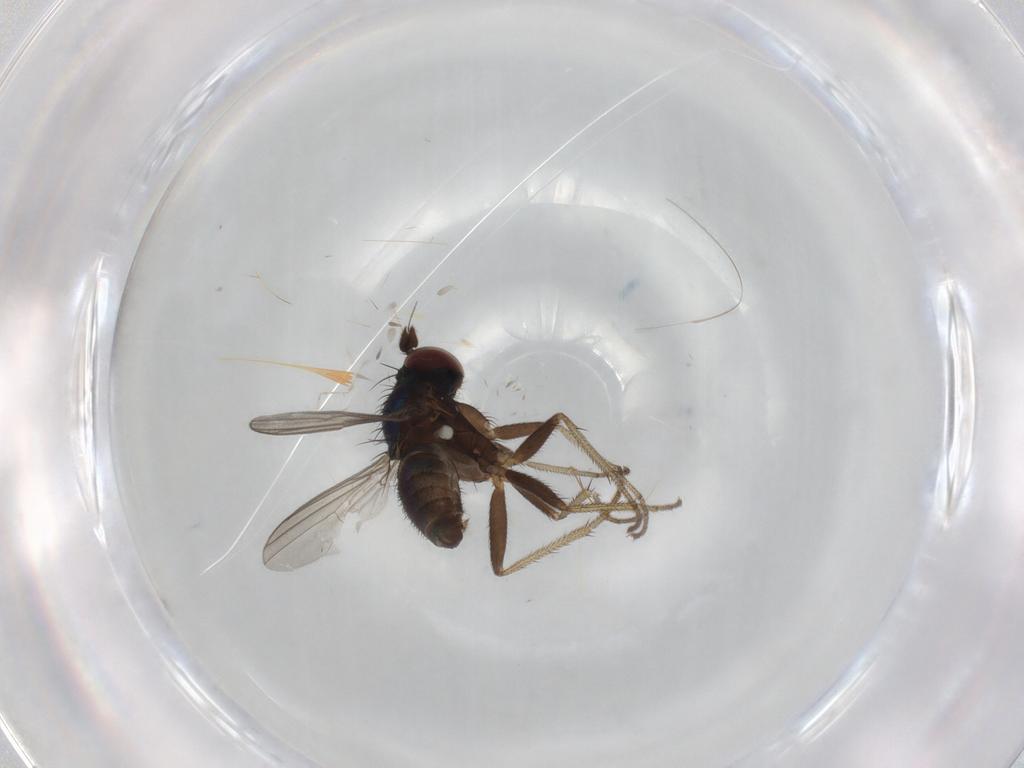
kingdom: Animalia
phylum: Arthropoda
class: Insecta
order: Diptera
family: Dolichopodidae
